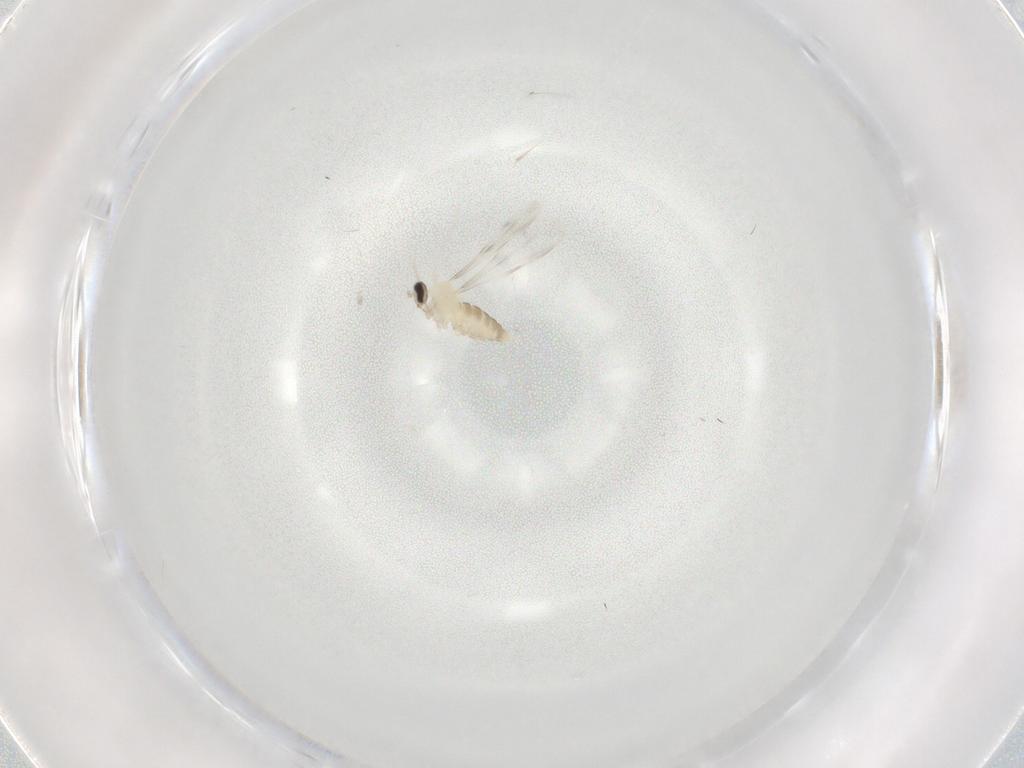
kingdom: Animalia
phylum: Arthropoda
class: Insecta
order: Diptera
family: Cecidomyiidae
